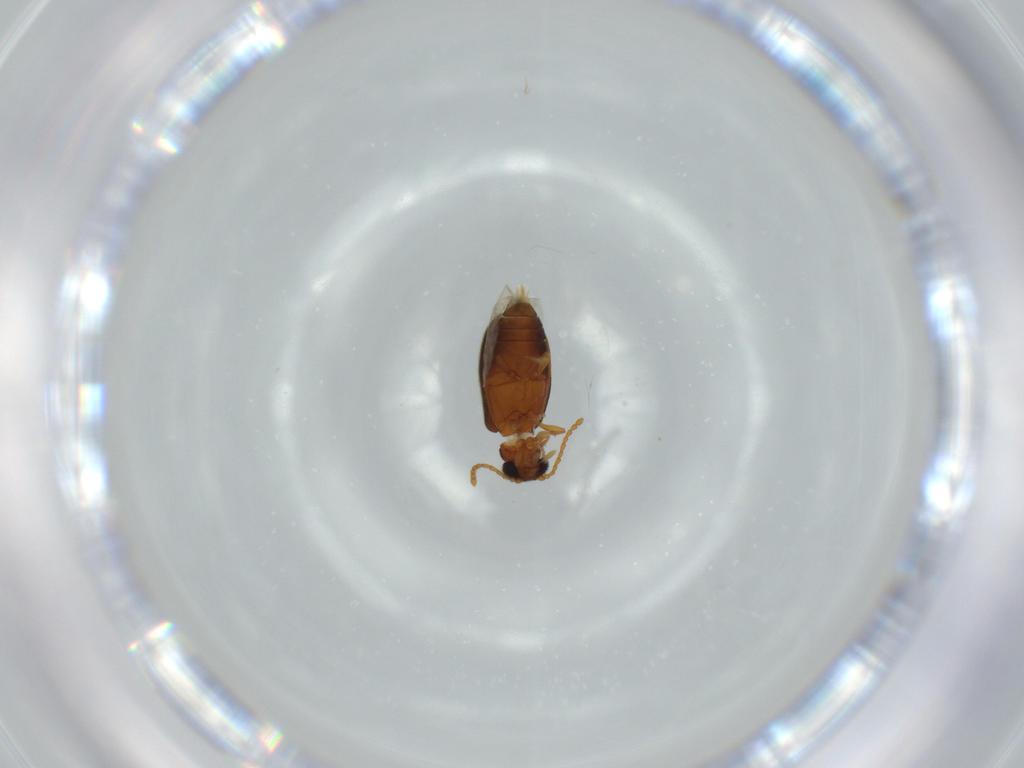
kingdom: Animalia
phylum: Arthropoda
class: Insecta
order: Coleoptera
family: Aderidae
